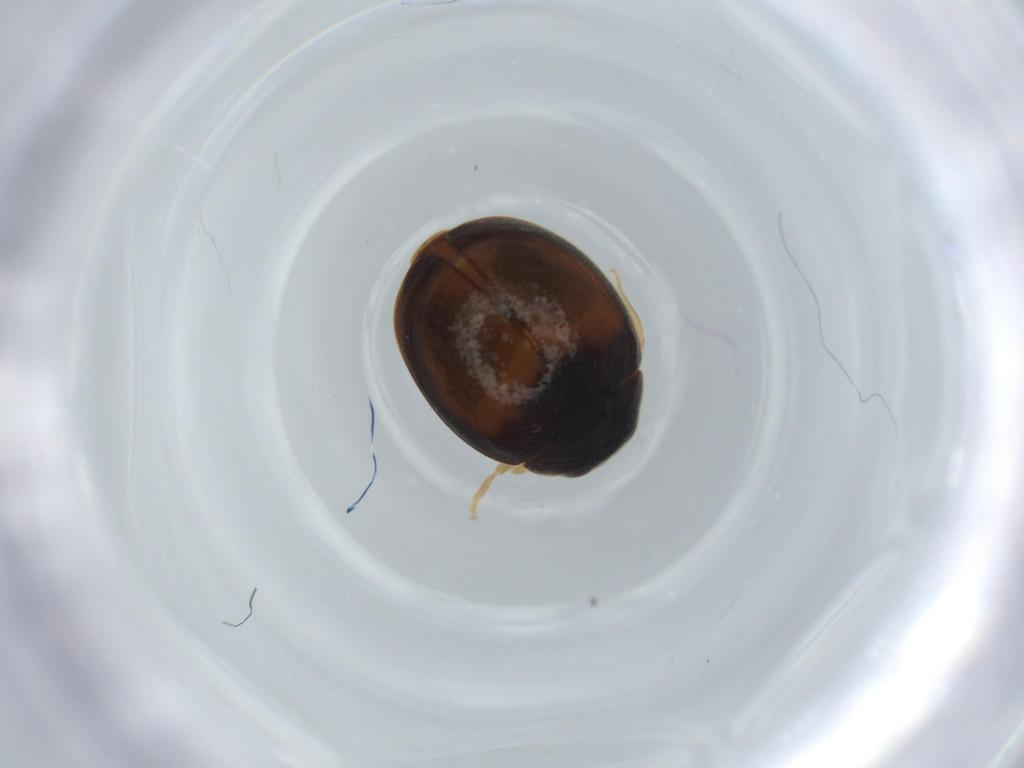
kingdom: Animalia
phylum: Arthropoda
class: Insecta
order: Coleoptera
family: Coccinellidae
